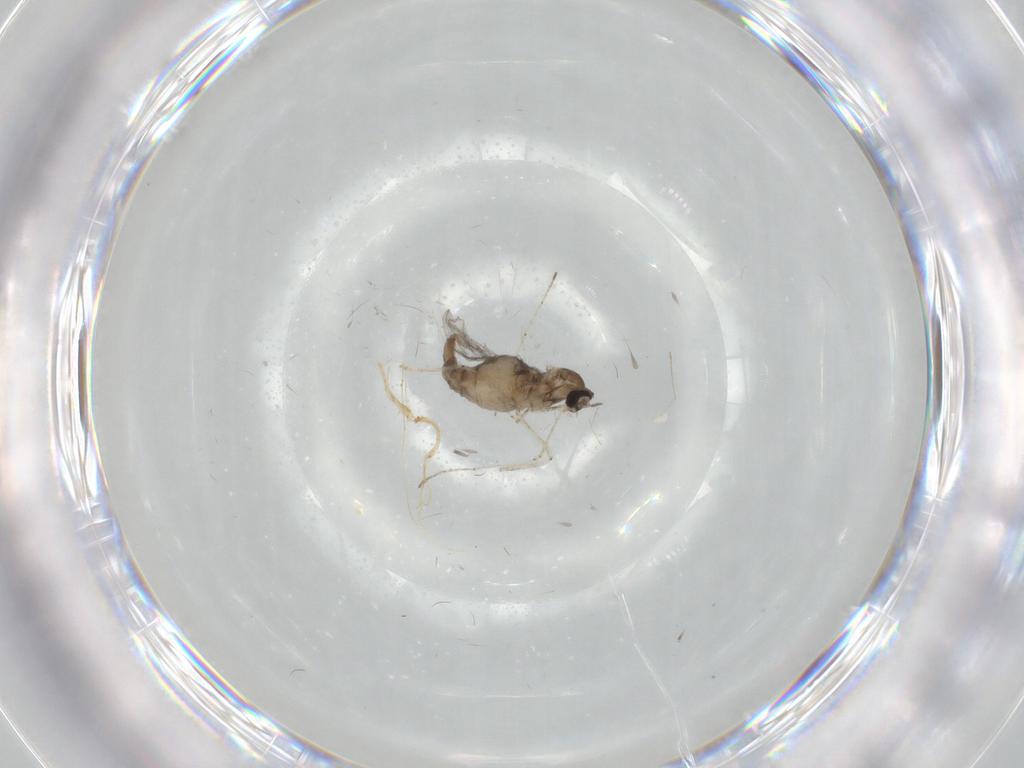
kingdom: Animalia
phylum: Arthropoda
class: Insecta
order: Diptera
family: Cecidomyiidae
